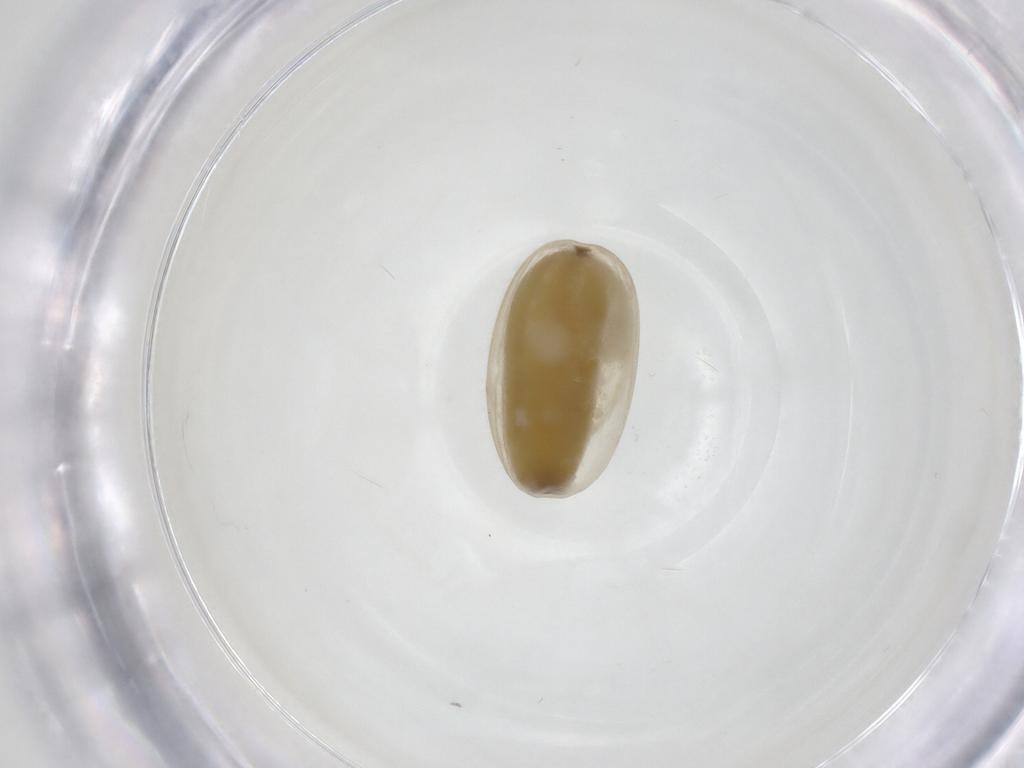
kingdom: Animalia
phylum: Arthropoda
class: Insecta
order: Lepidoptera
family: Crambidae
